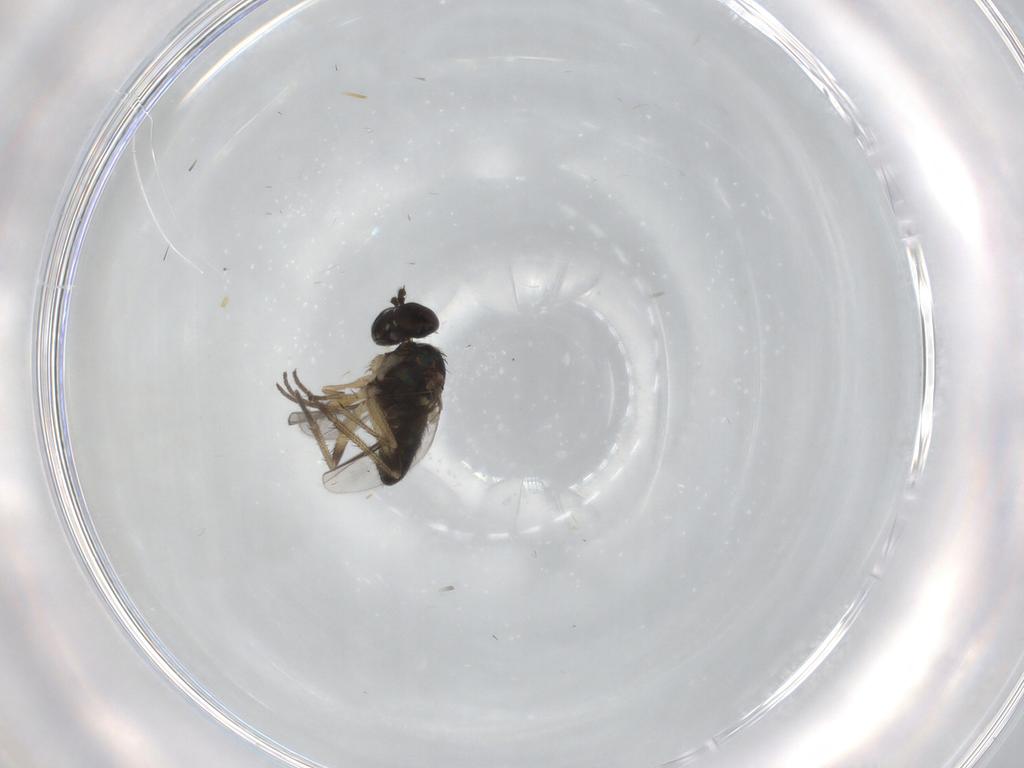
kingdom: Animalia
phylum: Arthropoda
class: Insecta
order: Diptera
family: Dolichopodidae
